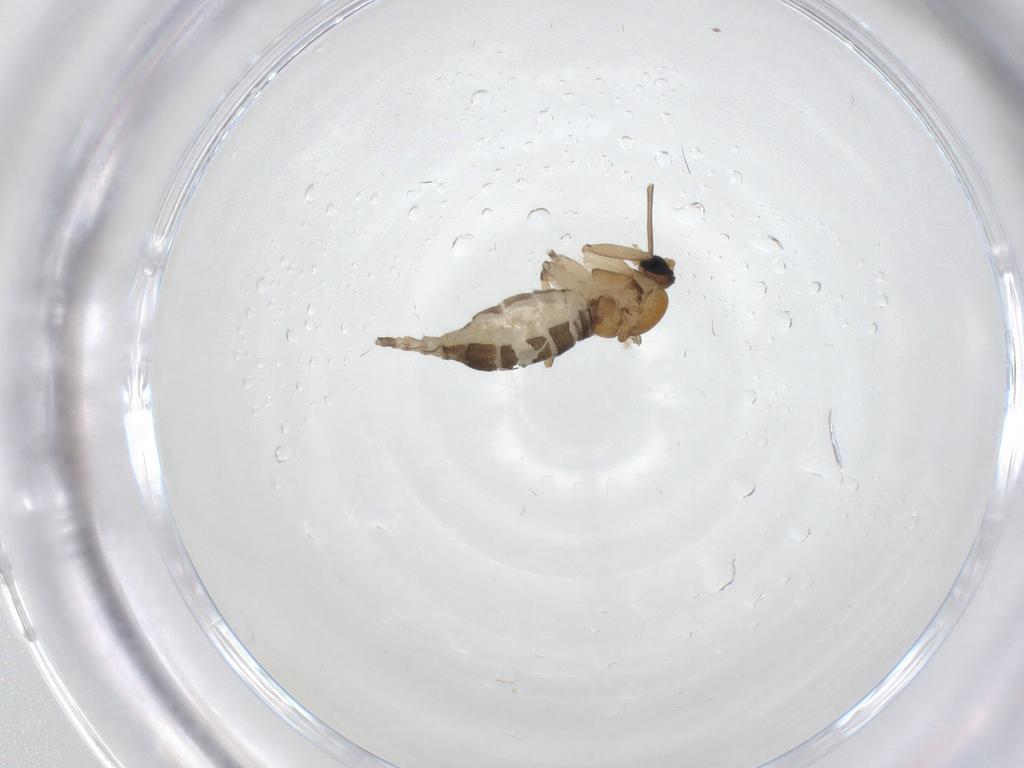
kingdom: Animalia
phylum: Arthropoda
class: Insecta
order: Diptera
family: Sciaridae
